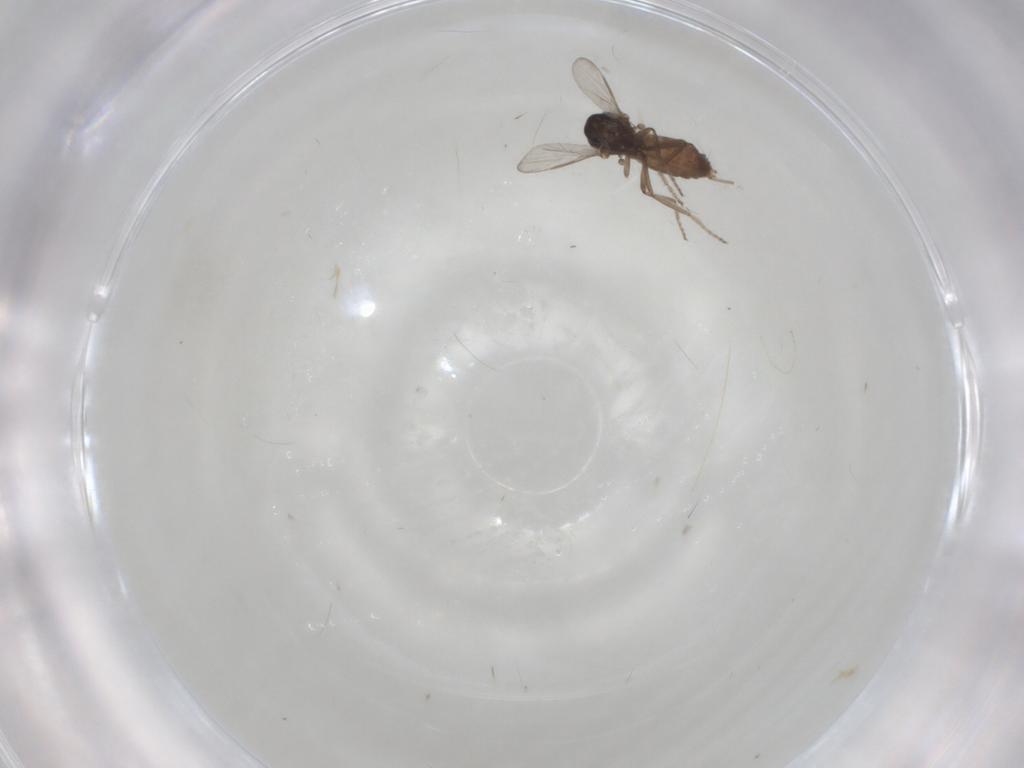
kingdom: Animalia
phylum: Arthropoda
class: Insecta
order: Diptera
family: Ceratopogonidae
